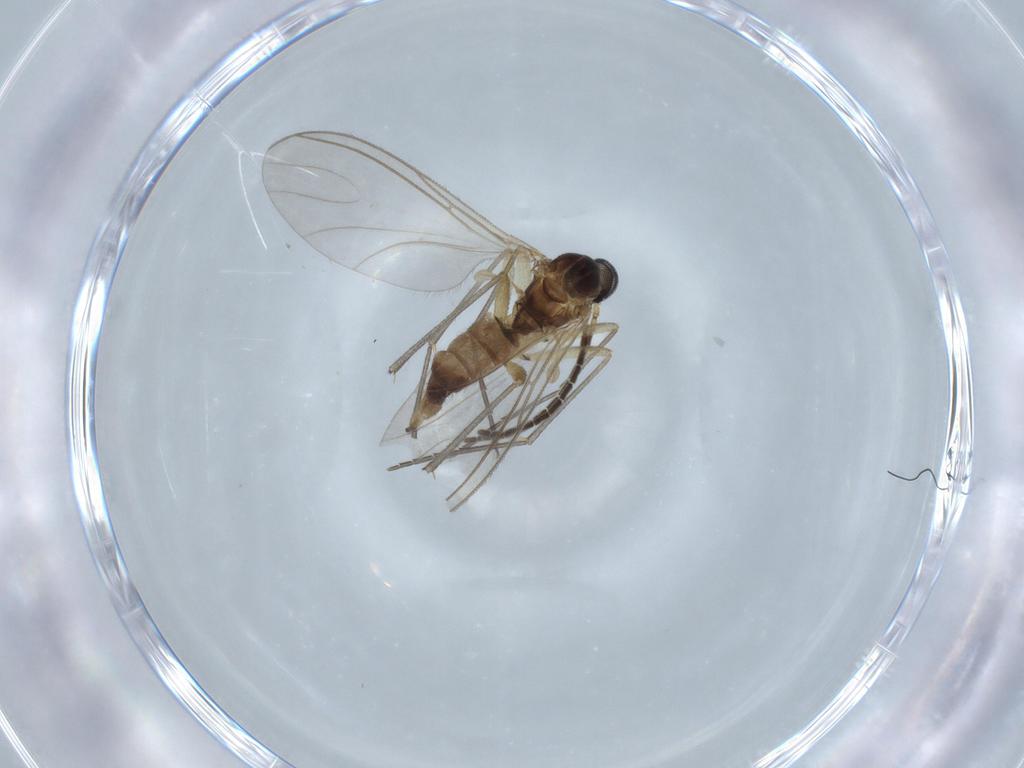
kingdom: Animalia
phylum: Arthropoda
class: Insecta
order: Diptera
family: Sciaridae
